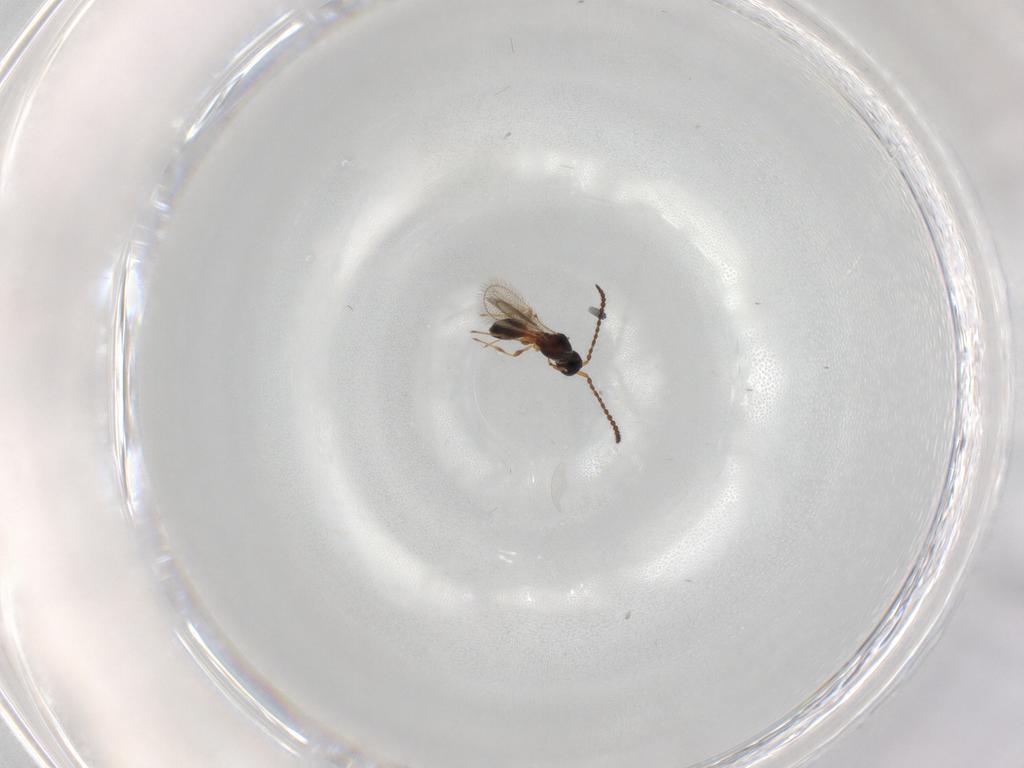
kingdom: Animalia
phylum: Arthropoda
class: Insecta
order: Hymenoptera
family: Diapriidae
